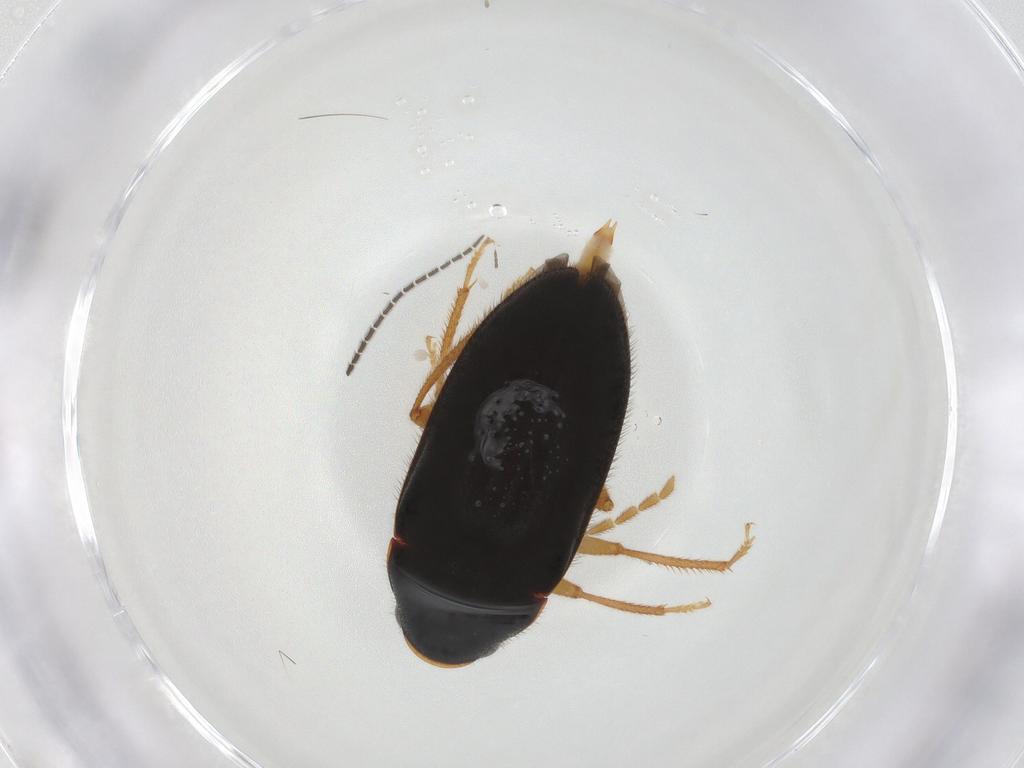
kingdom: Animalia
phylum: Arthropoda
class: Insecta
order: Coleoptera
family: Ptilodactylidae
